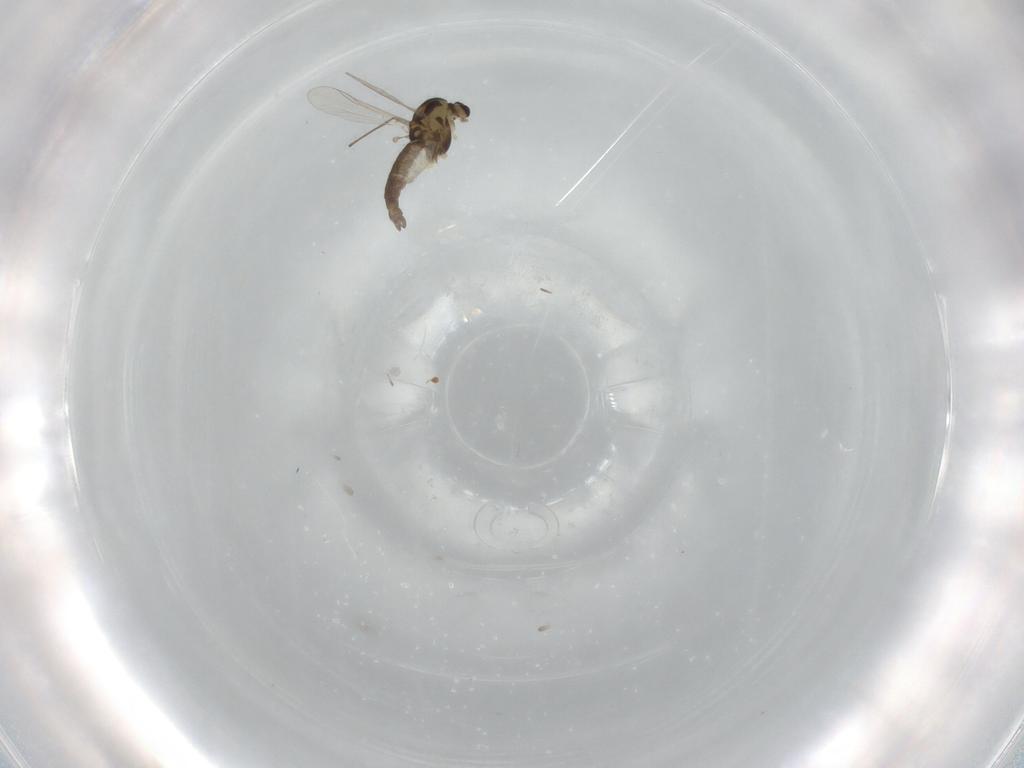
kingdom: Animalia
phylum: Arthropoda
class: Insecta
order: Diptera
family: Chironomidae
